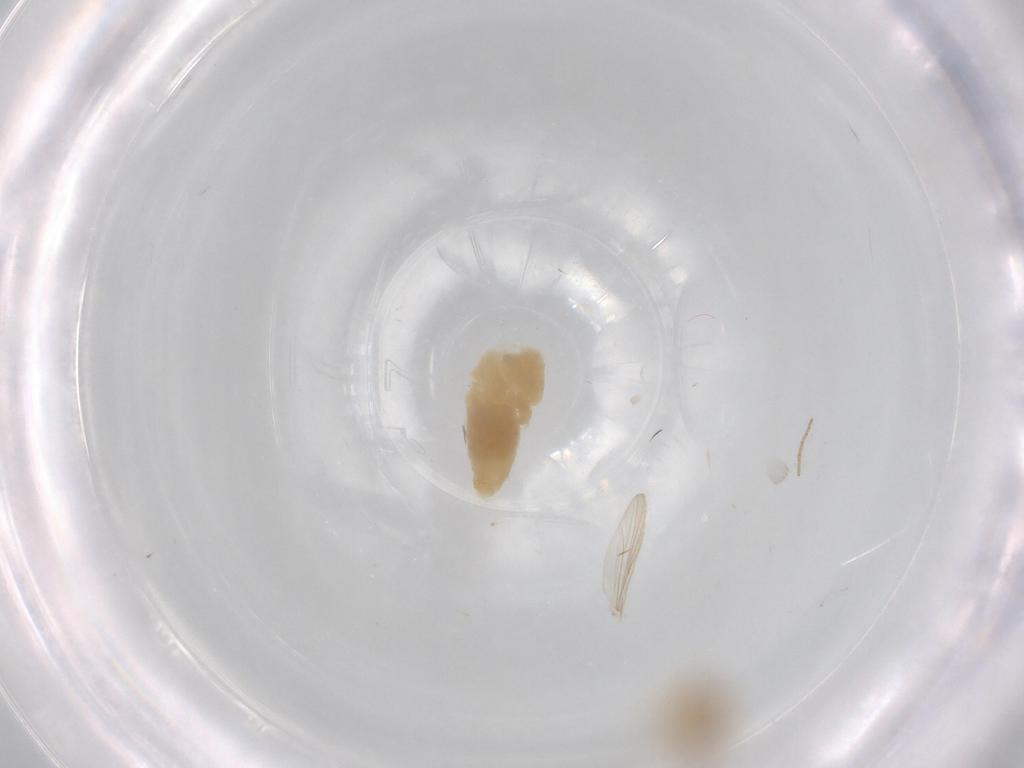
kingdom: Animalia
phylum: Arthropoda
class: Insecta
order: Diptera
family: Chironomidae
